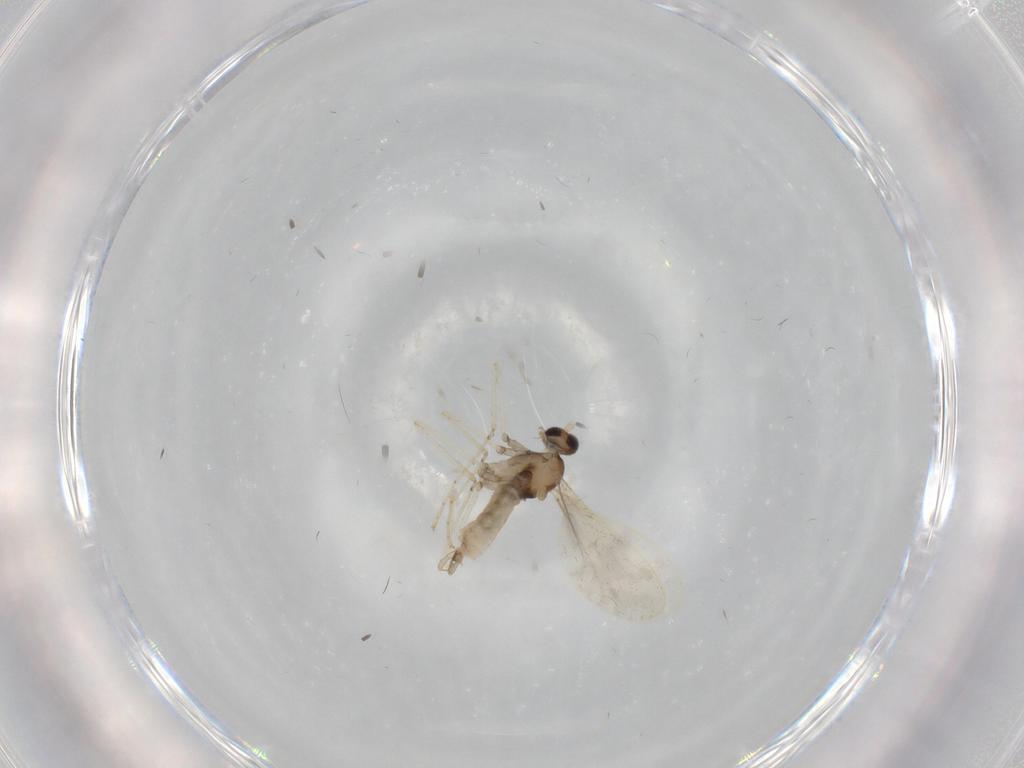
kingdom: Animalia
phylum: Arthropoda
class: Insecta
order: Diptera
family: Cecidomyiidae
